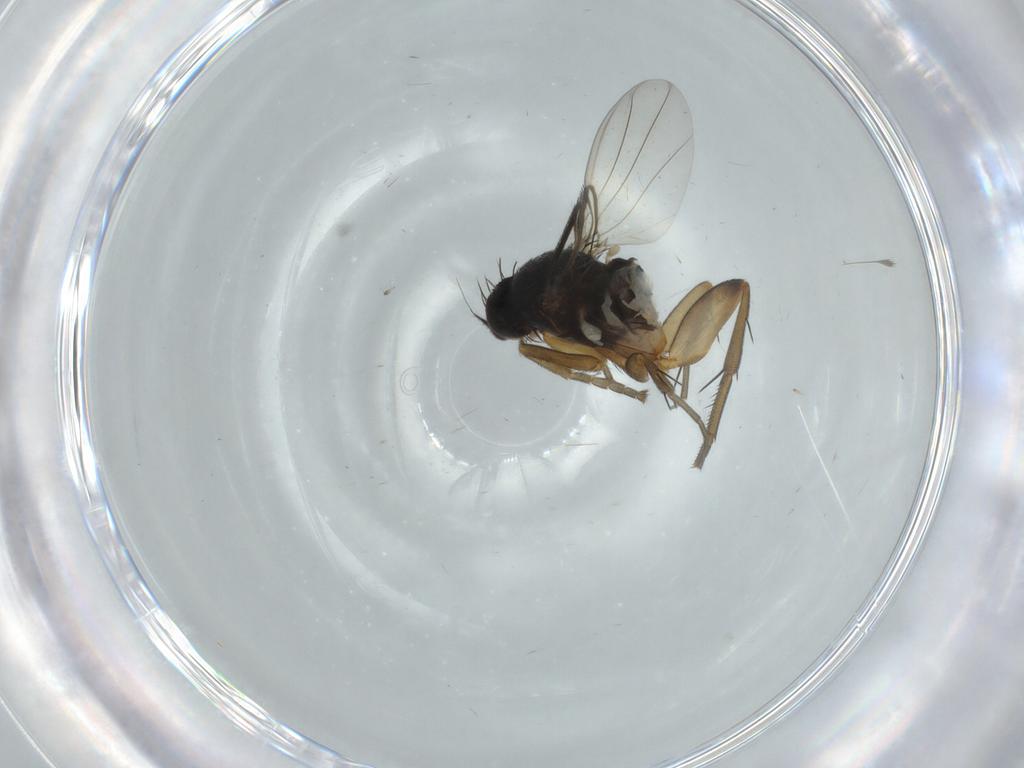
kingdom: Animalia
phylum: Arthropoda
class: Insecta
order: Diptera
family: Phoridae
